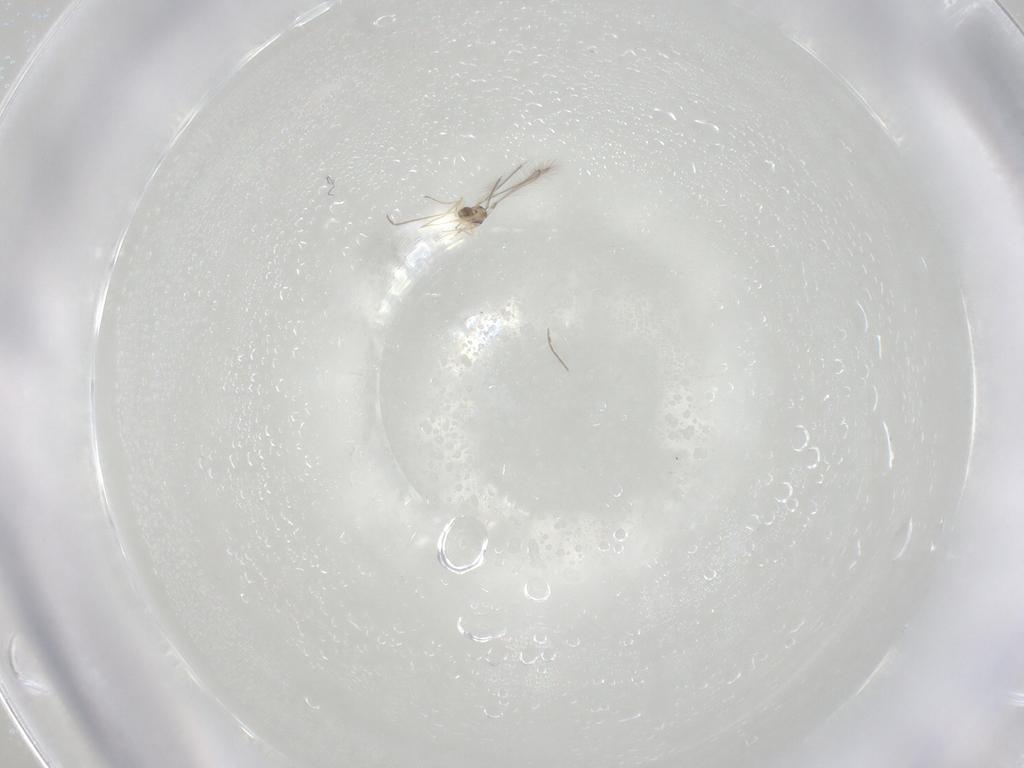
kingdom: Animalia
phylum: Arthropoda
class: Insecta
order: Hymenoptera
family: Mymaridae
